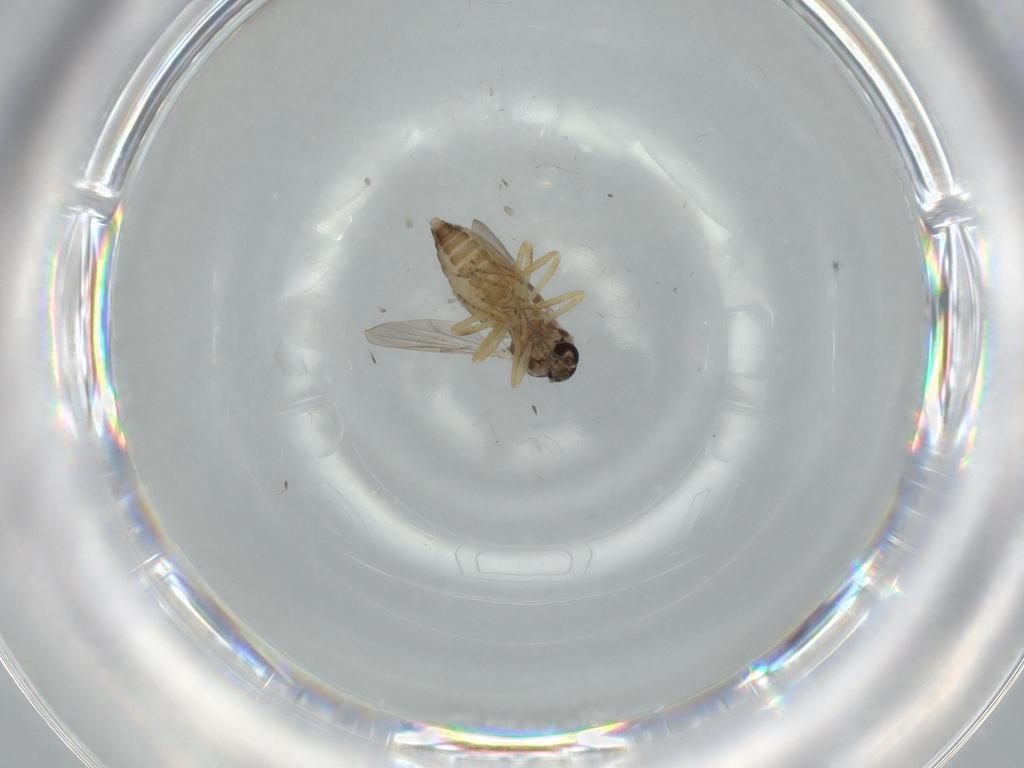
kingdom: Animalia
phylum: Arthropoda
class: Insecta
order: Diptera
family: Ceratopogonidae
